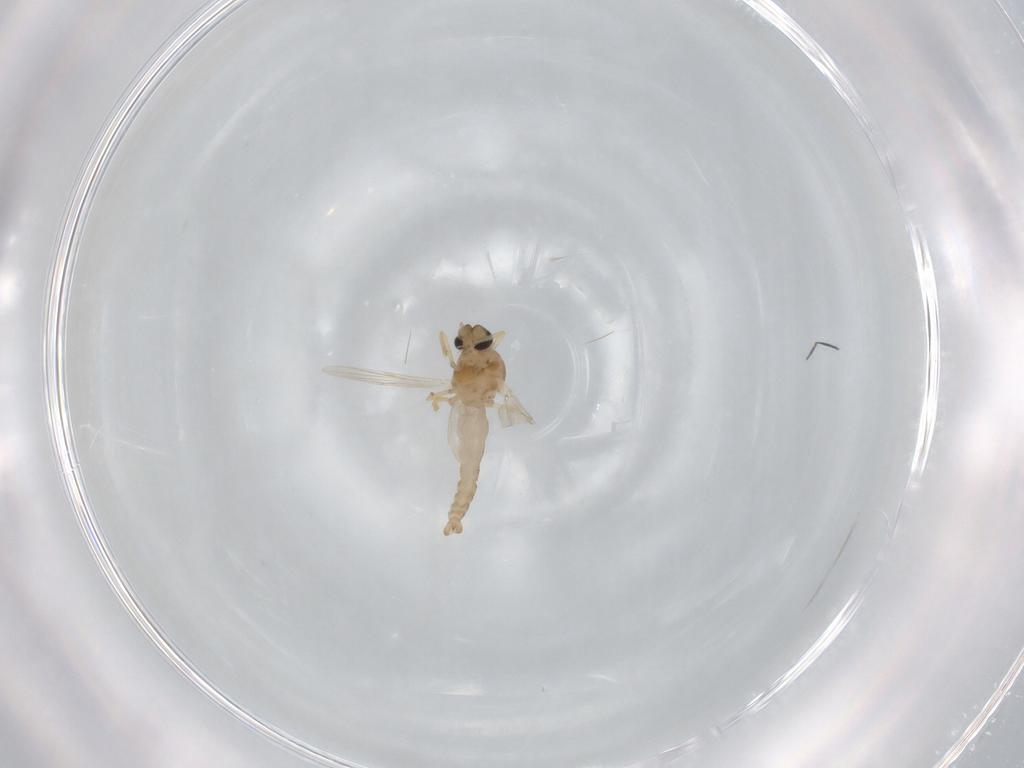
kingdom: Animalia
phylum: Arthropoda
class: Insecta
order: Diptera
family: Ceratopogonidae
